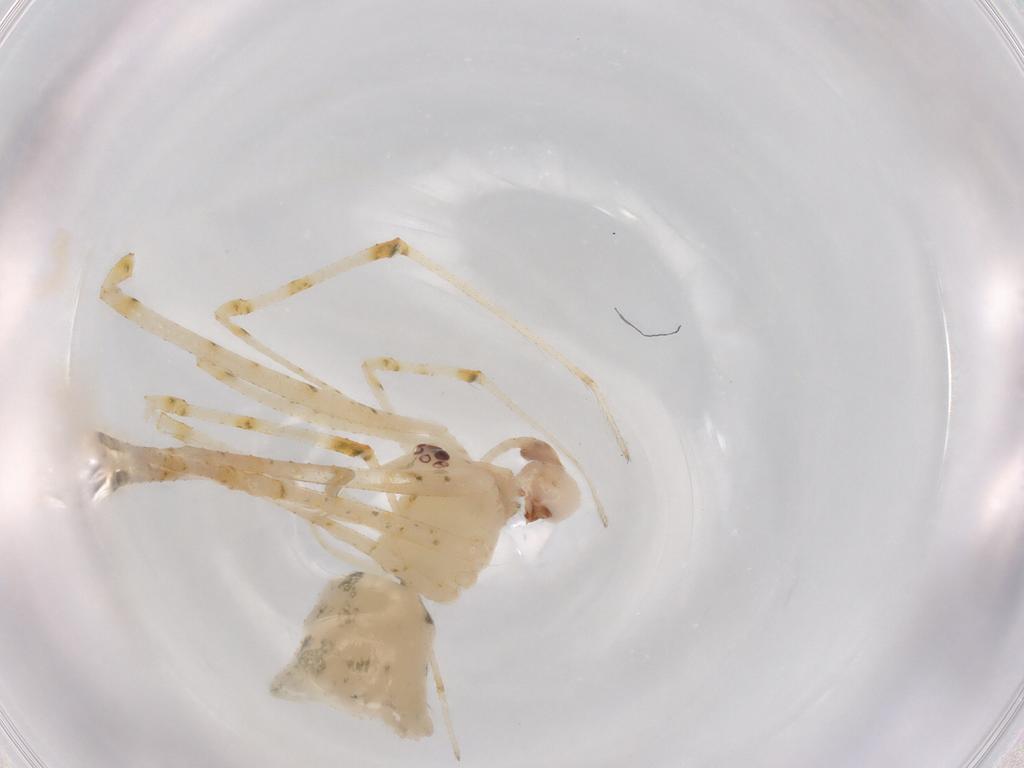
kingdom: Animalia
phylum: Arthropoda
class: Arachnida
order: Araneae
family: Theridiidae
